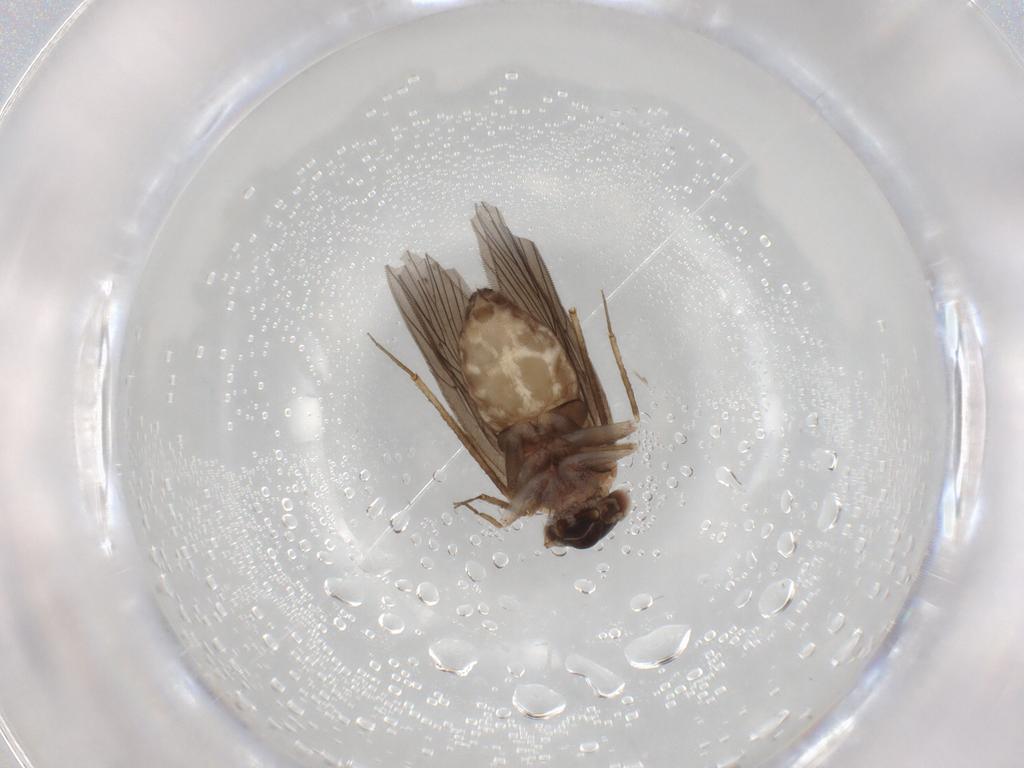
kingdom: Animalia
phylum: Arthropoda
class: Insecta
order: Psocodea
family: Lepidopsocidae
